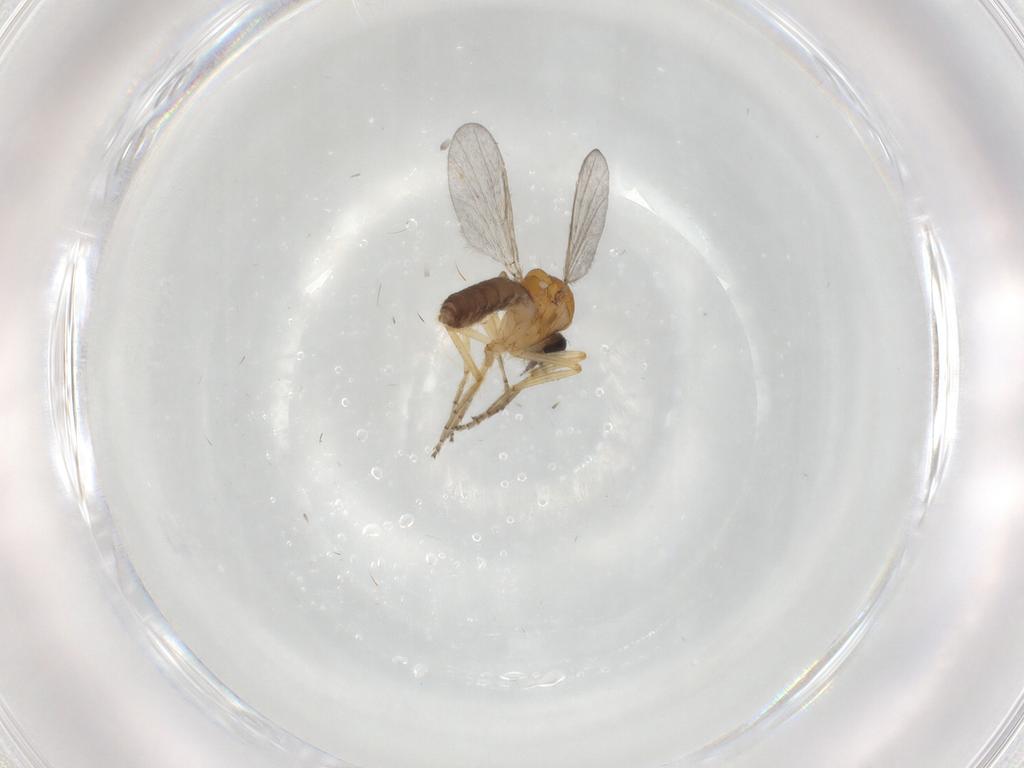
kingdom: Animalia
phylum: Arthropoda
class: Insecta
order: Diptera
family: Ceratopogonidae
